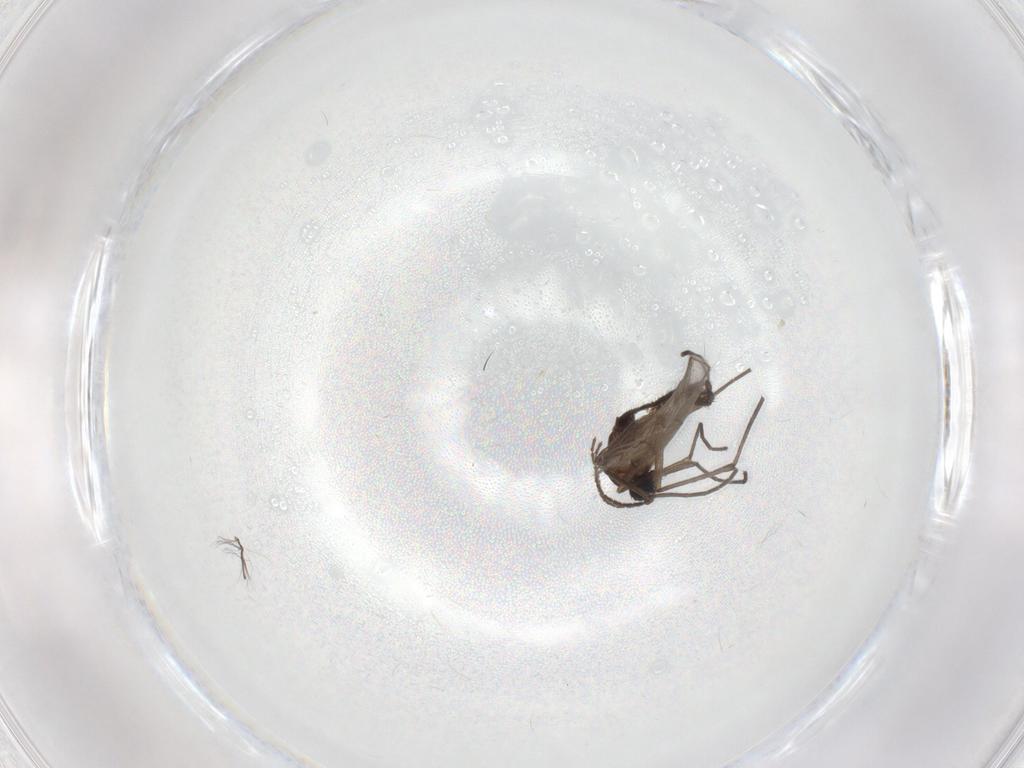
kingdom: Animalia
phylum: Arthropoda
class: Insecta
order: Diptera
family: Sciaridae
